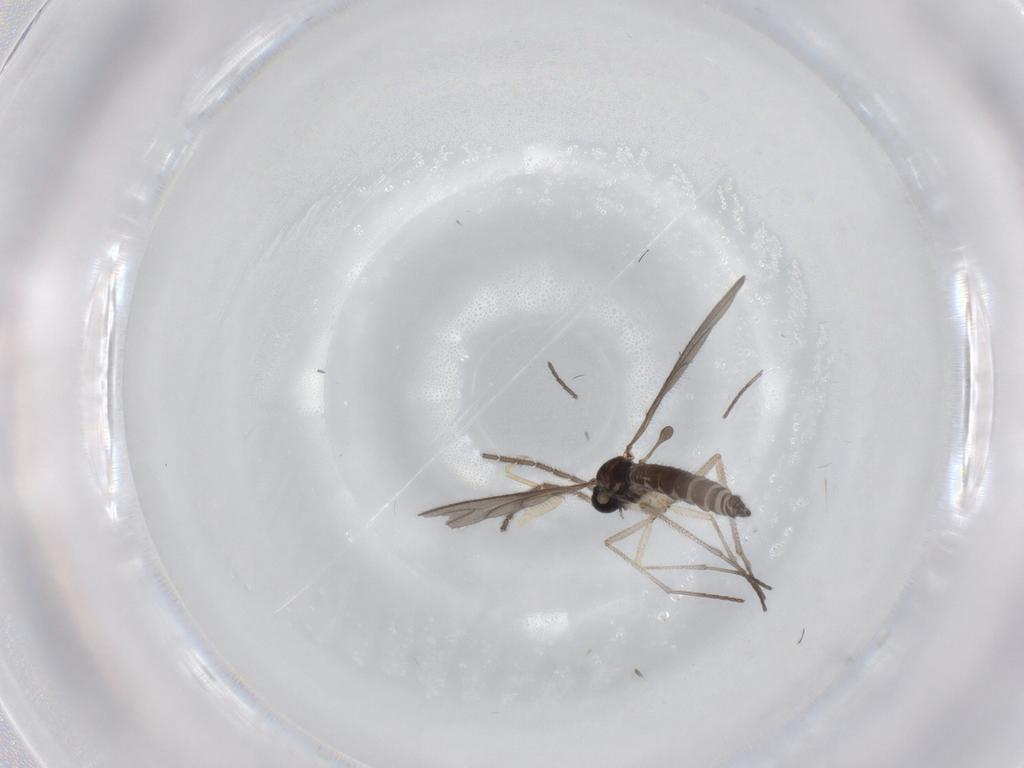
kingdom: Animalia
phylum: Arthropoda
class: Insecta
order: Diptera
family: Sciaridae
